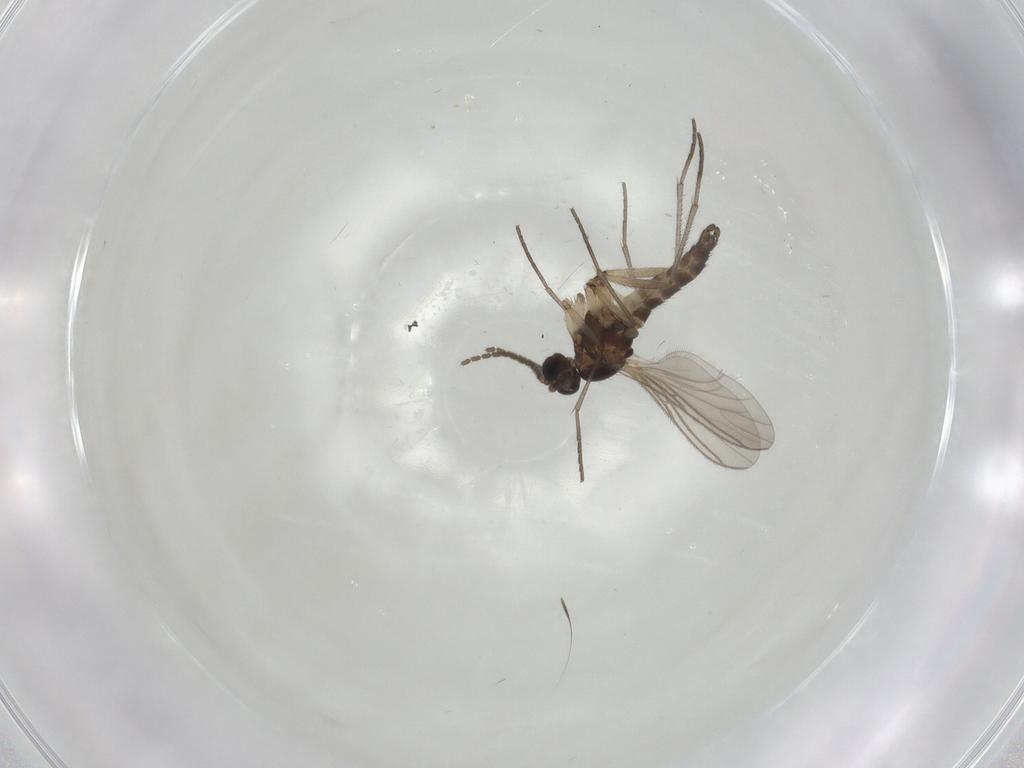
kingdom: Animalia
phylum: Arthropoda
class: Insecta
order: Diptera
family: Sciaridae
